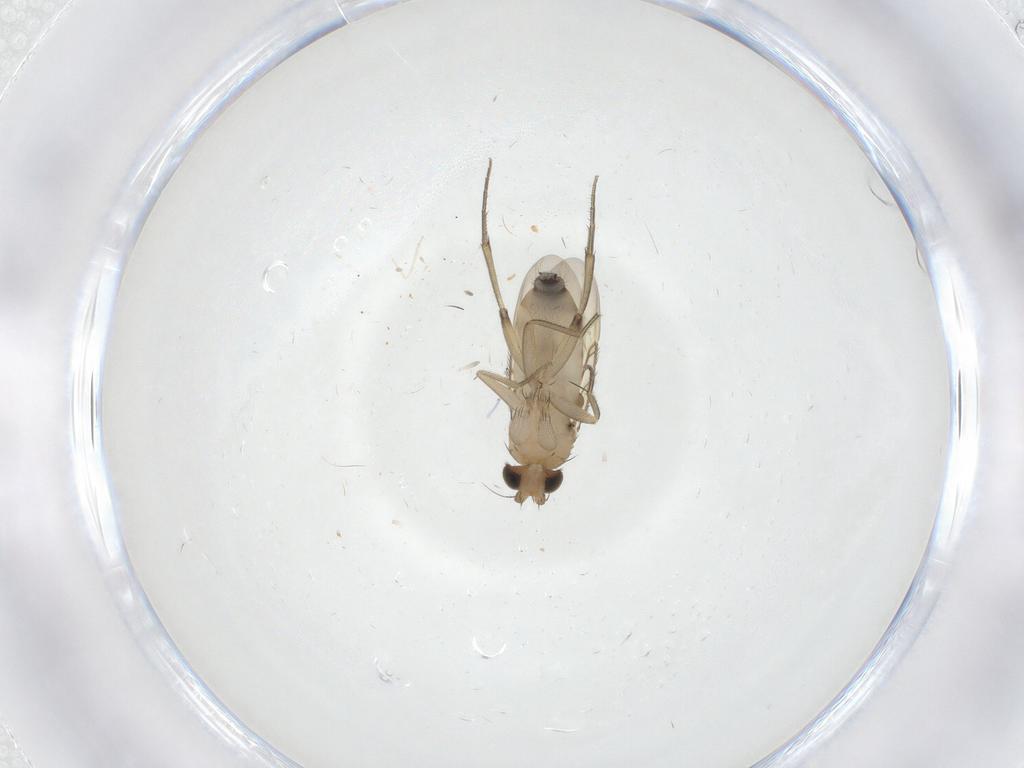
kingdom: Animalia
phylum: Arthropoda
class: Insecta
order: Diptera
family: Phoridae
